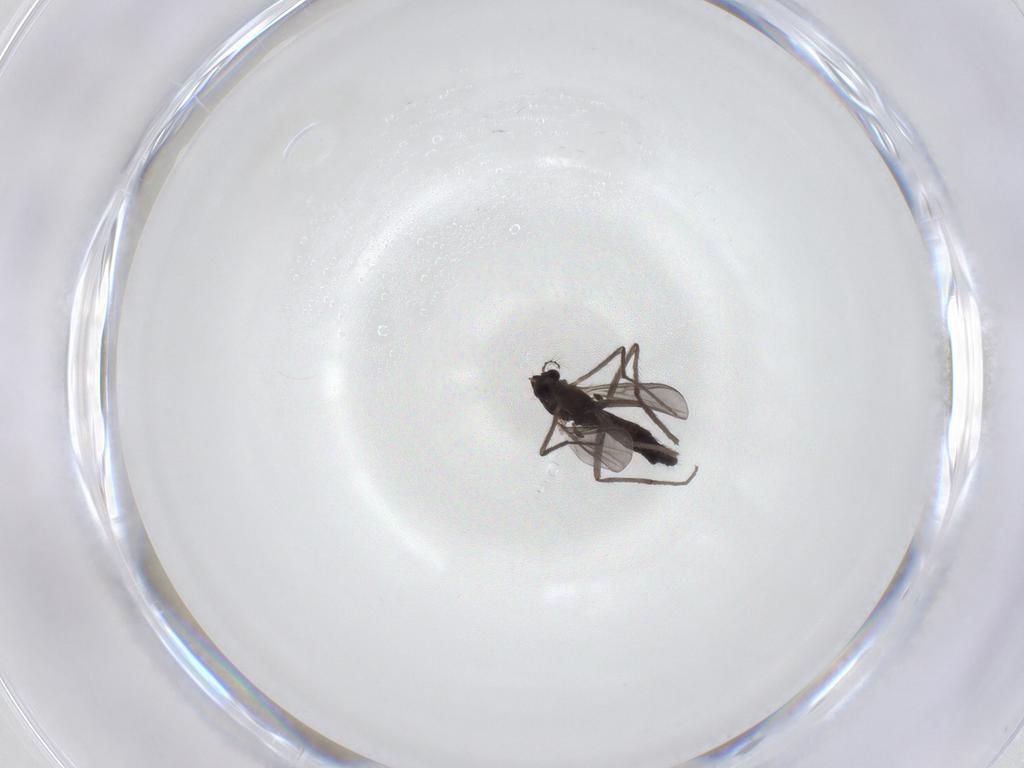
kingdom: Animalia
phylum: Arthropoda
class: Insecta
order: Diptera
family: Chironomidae
